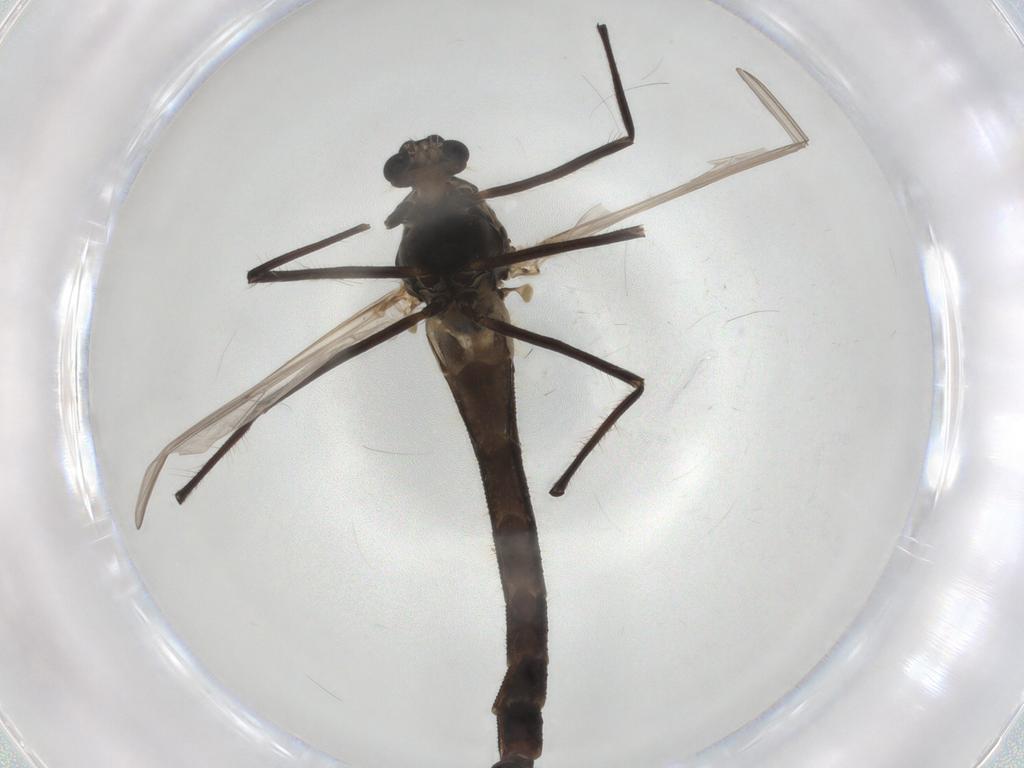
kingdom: Animalia
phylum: Arthropoda
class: Insecta
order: Diptera
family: Chironomidae
